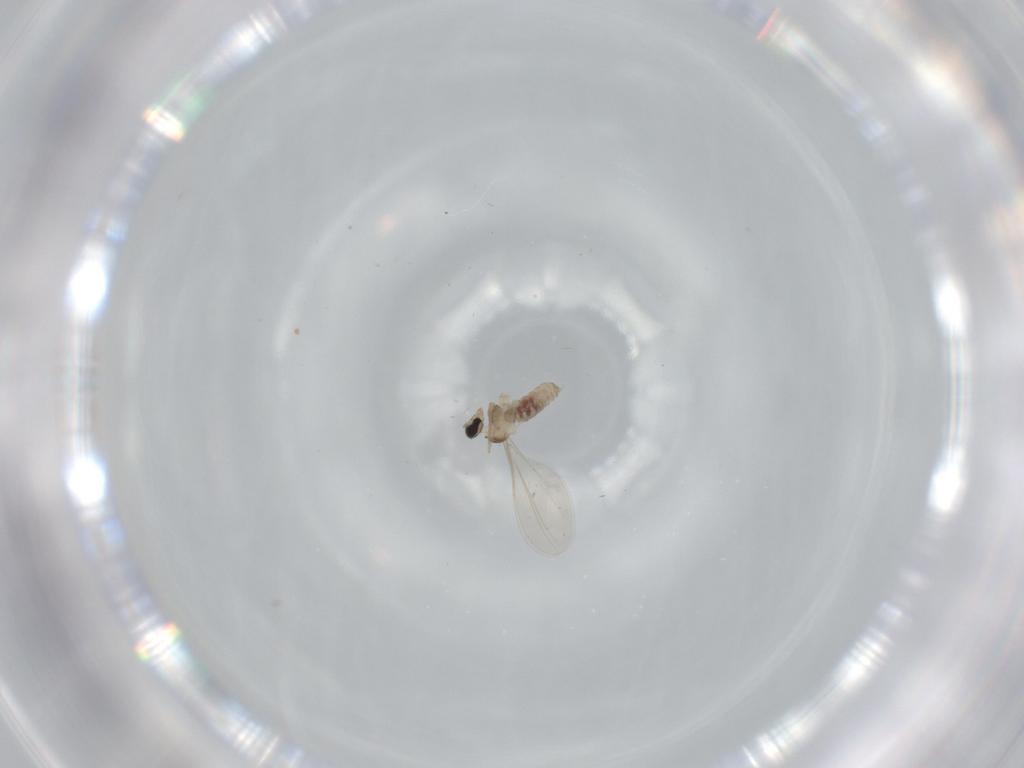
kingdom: Animalia
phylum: Arthropoda
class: Insecta
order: Diptera
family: Cecidomyiidae
